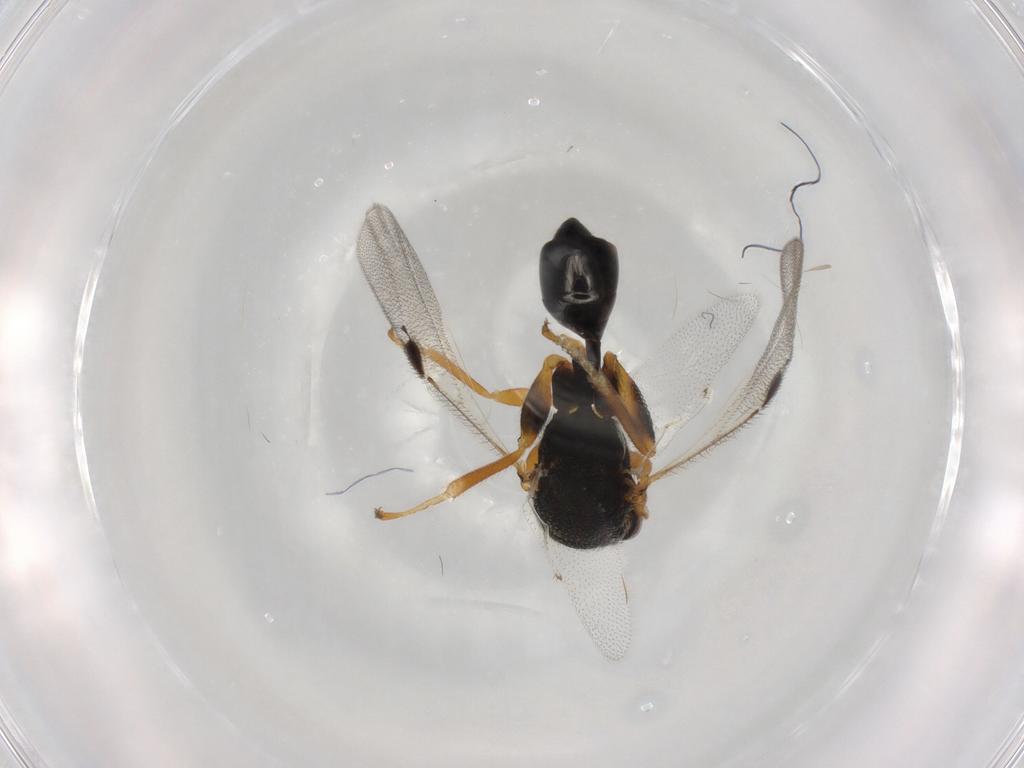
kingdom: Animalia
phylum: Arthropoda
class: Insecta
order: Hymenoptera
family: Eurytomidae
